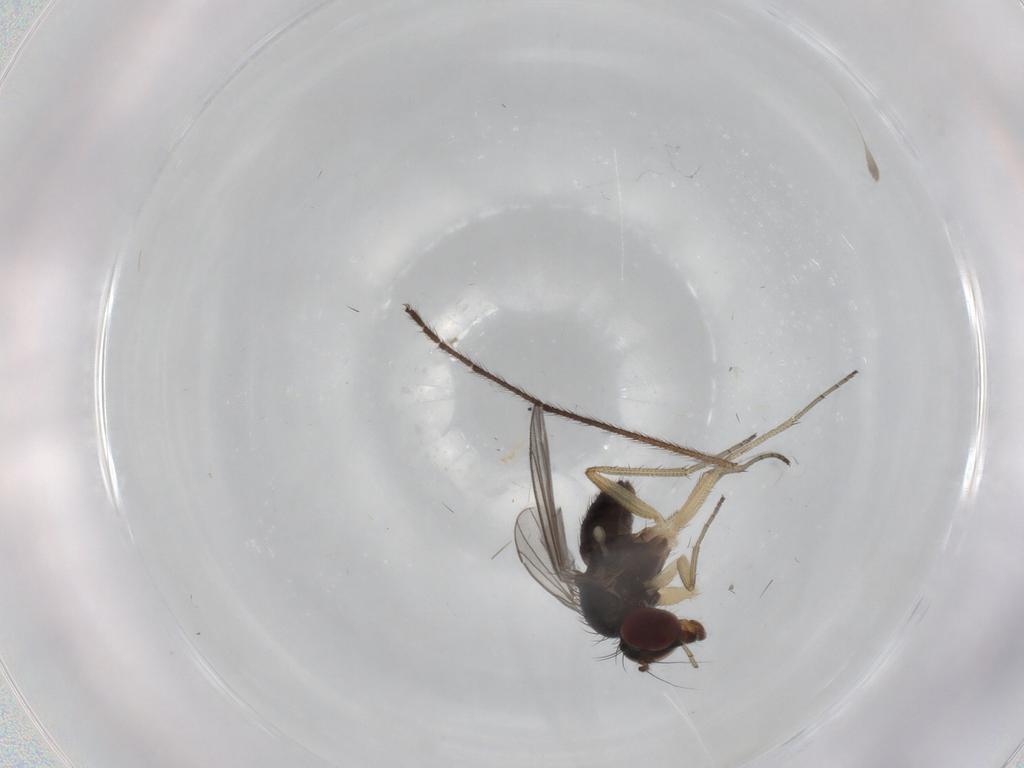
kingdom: Animalia
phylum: Arthropoda
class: Insecta
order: Diptera
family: Dolichopodidae
